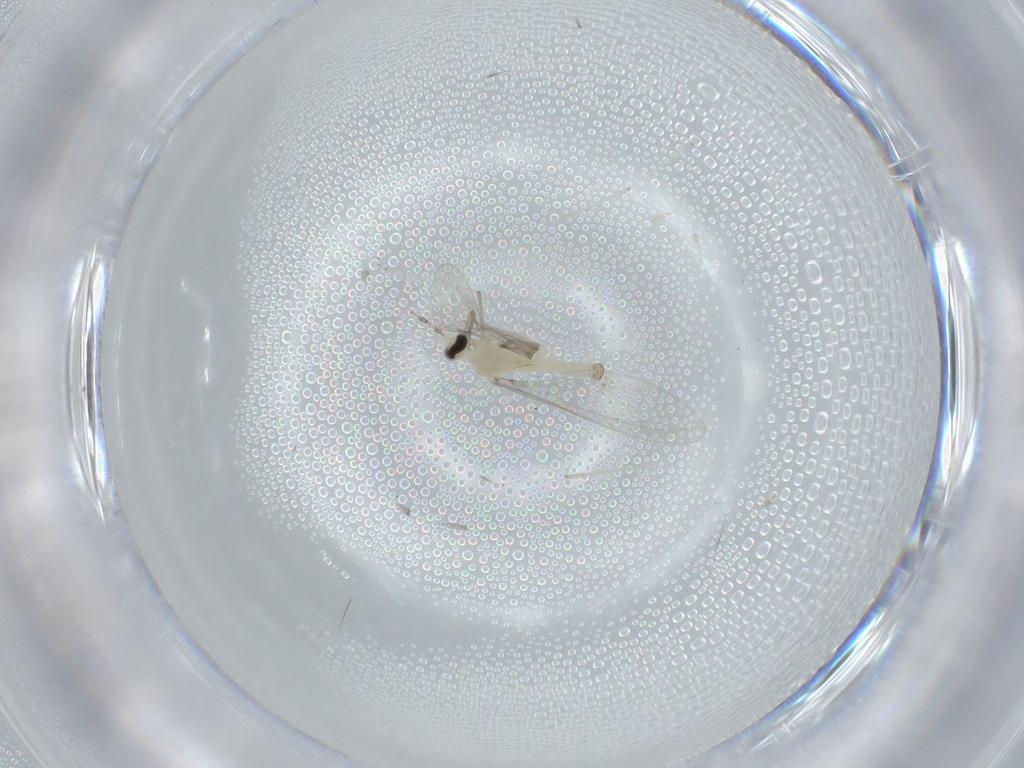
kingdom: Animalia
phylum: Arthropoda
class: Insecta
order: Diptera
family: Cecidomyiidae
